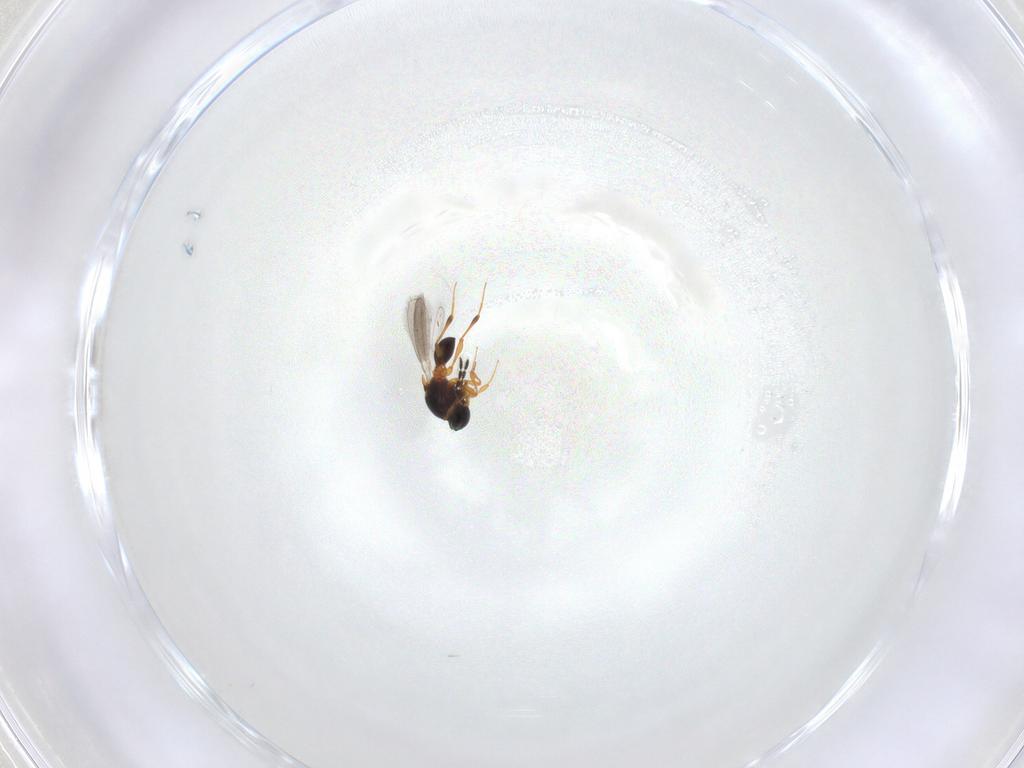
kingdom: Animalia
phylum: Arthropoda
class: Insecta
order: Hymenoptera
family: Platygastridae
